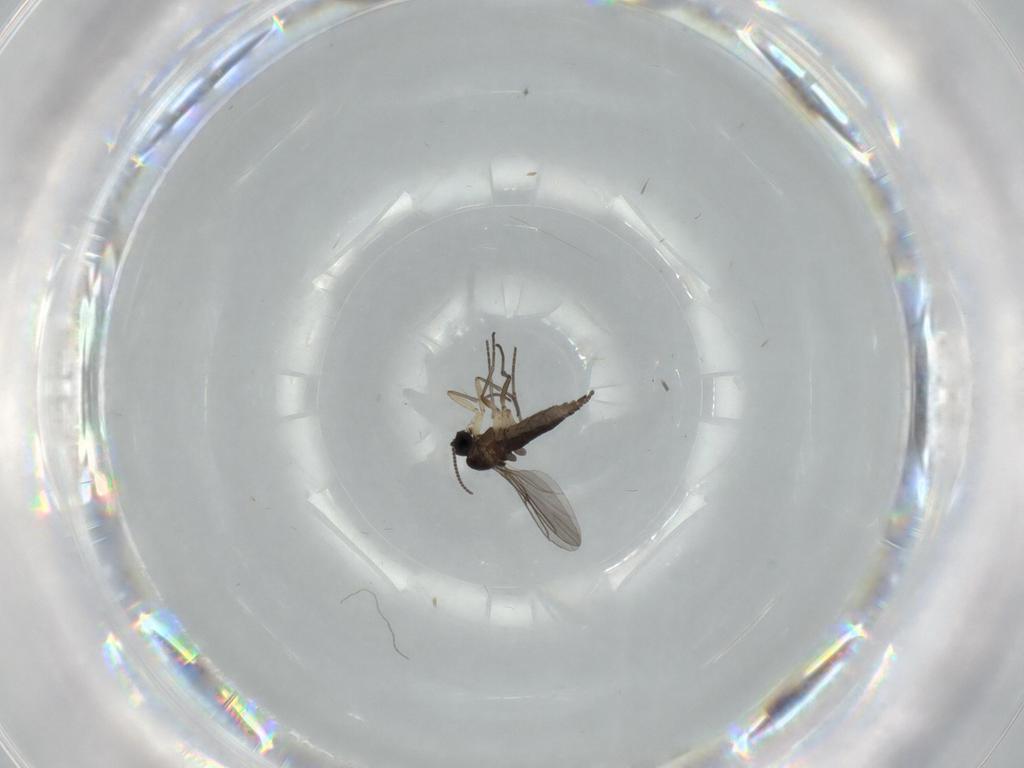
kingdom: Animalia
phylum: Arthropoda
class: Insecta
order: Diptera
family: Sciaridae
